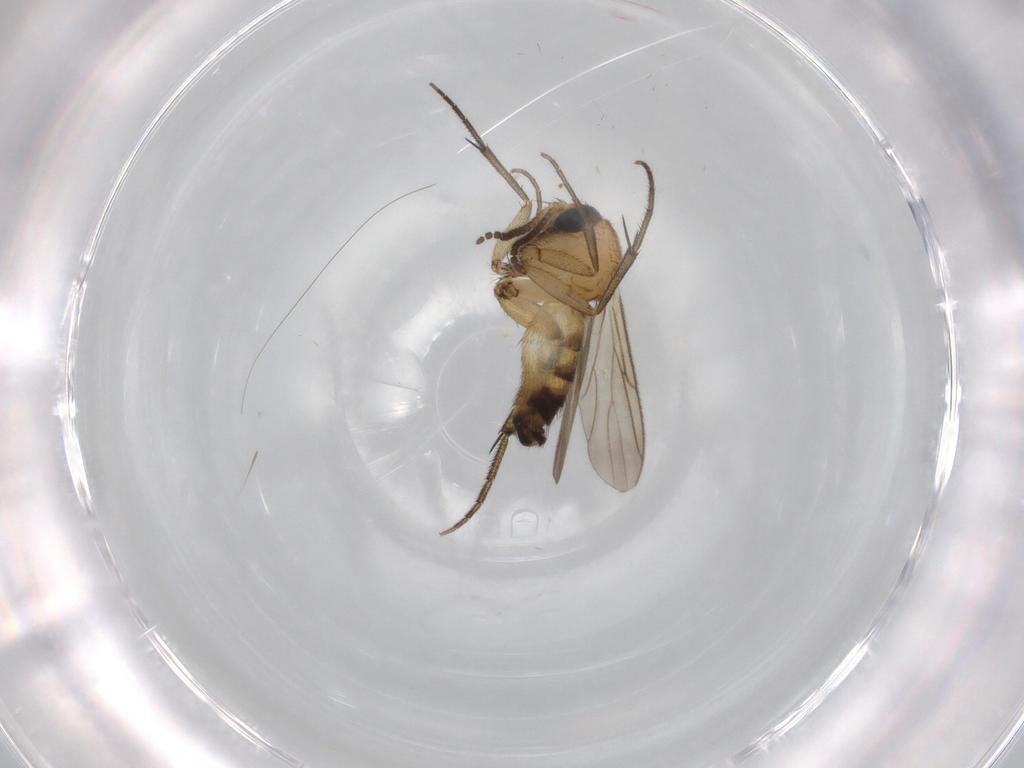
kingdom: Animalia
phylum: Arthropoda
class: Insecta
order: Diptera
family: Mycetophilidae
